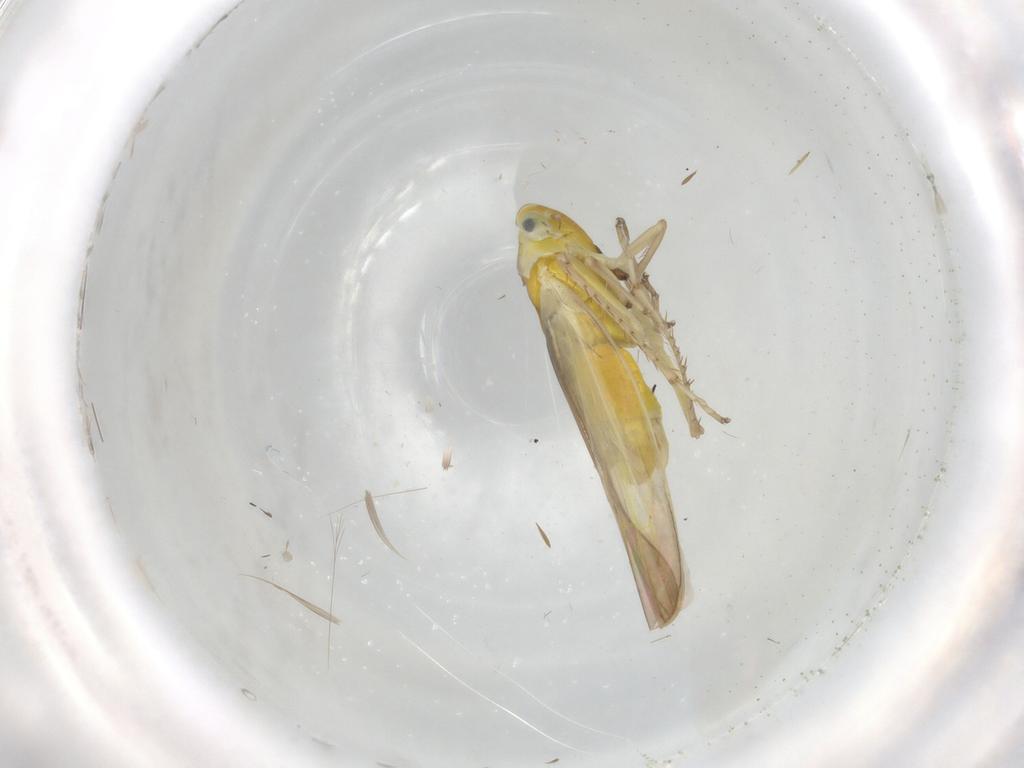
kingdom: Animalia
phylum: Arthropoda
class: Insecta
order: Hemiptera
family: Cicadellidae
